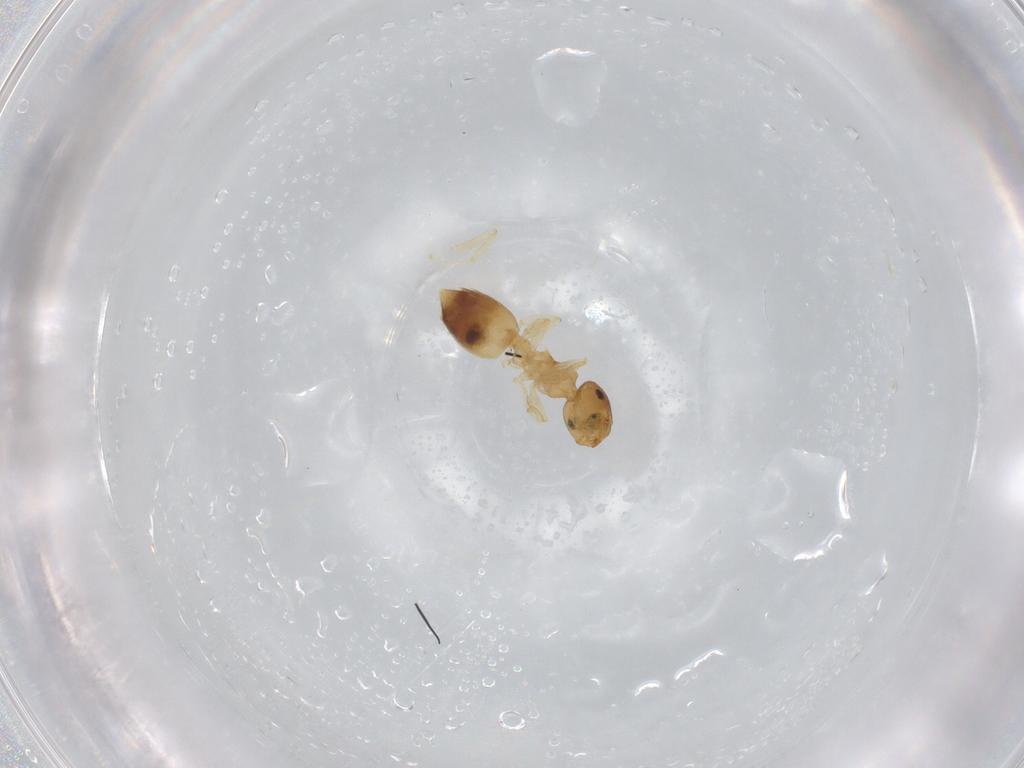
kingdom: Animalia
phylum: Arthropoda
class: Insecta
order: Hymenoptera
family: Formicidae
